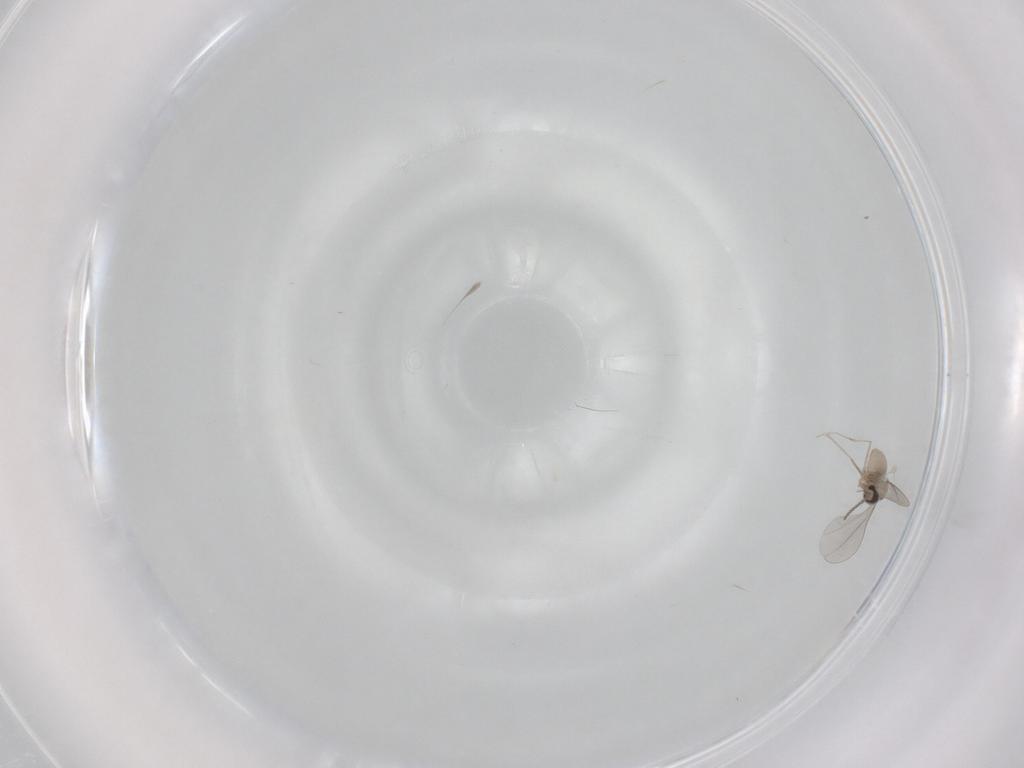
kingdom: Animalia
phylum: Arthropoda
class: Insecta
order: Diptera
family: Cecidomyiidae
